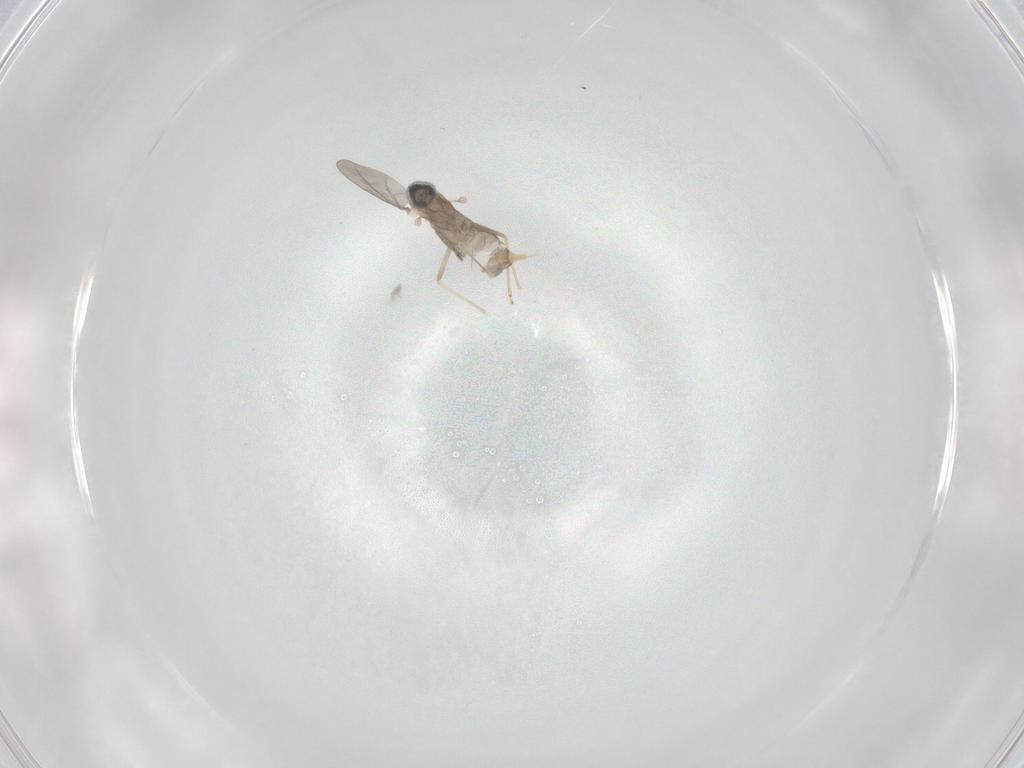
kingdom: Animalia
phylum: Arthropoda
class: Insecta
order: Diptera
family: Cecidomyiidae
